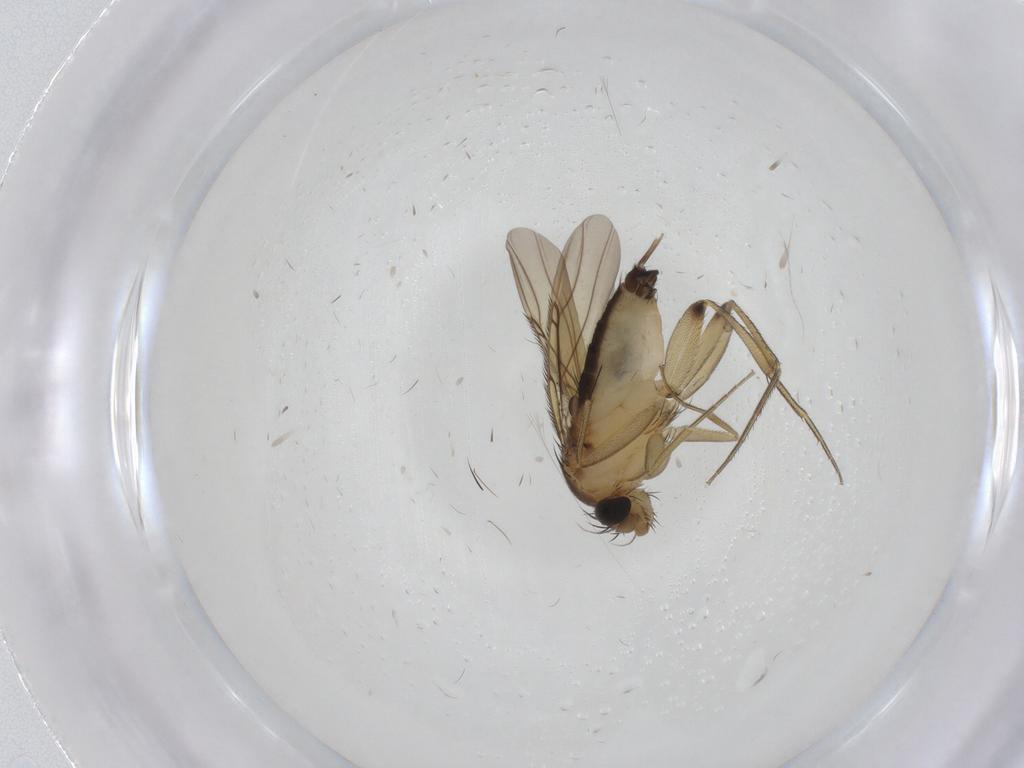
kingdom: Animalia
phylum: Arthropoda
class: Insecta
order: Diptera
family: Phoridae
